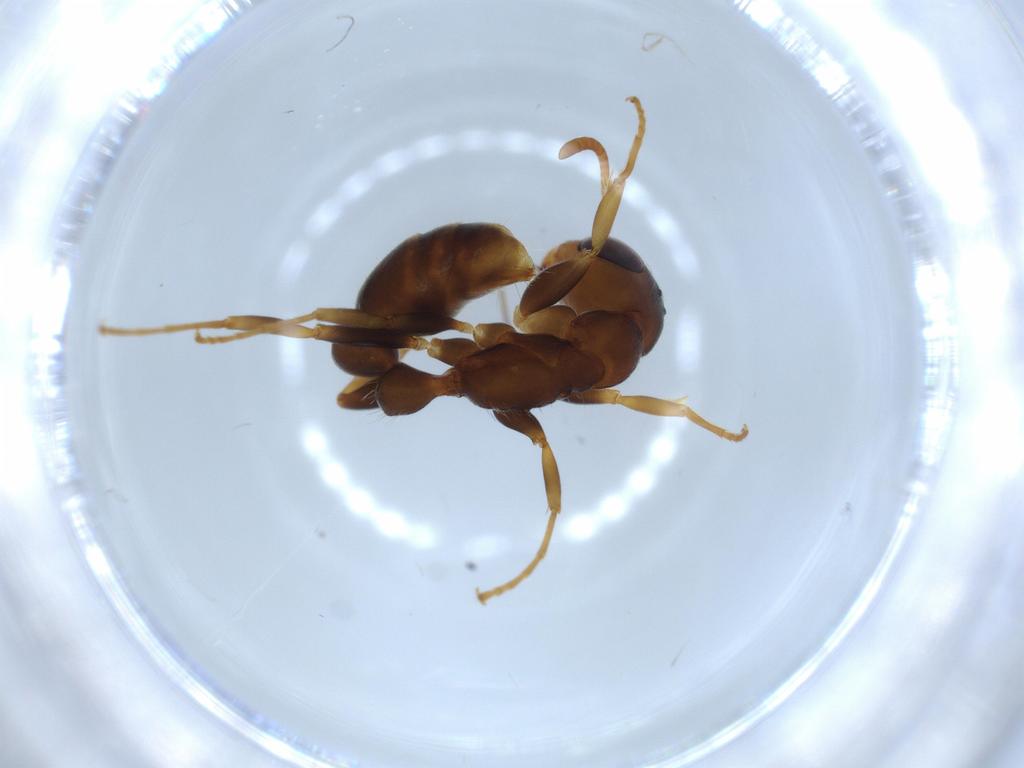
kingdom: Animalia
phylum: Arthropoda
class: Insecta
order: Hymenoptera
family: Formicidae
